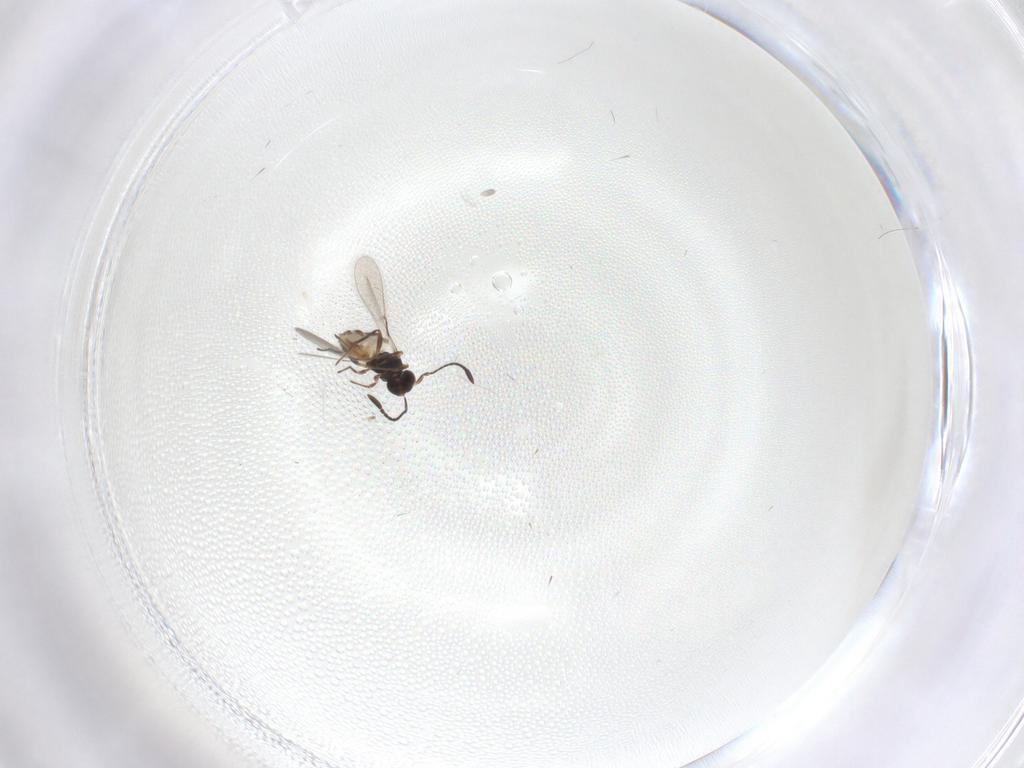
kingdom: Animalia
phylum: Arthropoda
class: Insecta
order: Hymenoptera
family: Mymaridae
